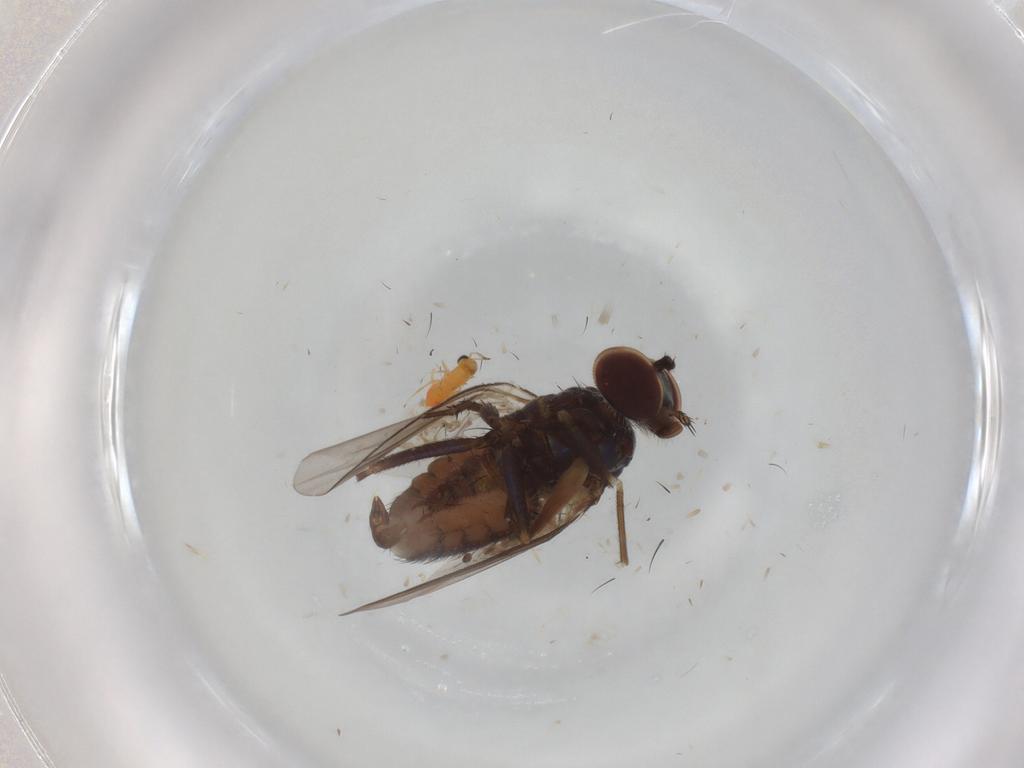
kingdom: Animalia
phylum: Arthropoda
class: Insecta
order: Diptera
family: Dolichopodidae
